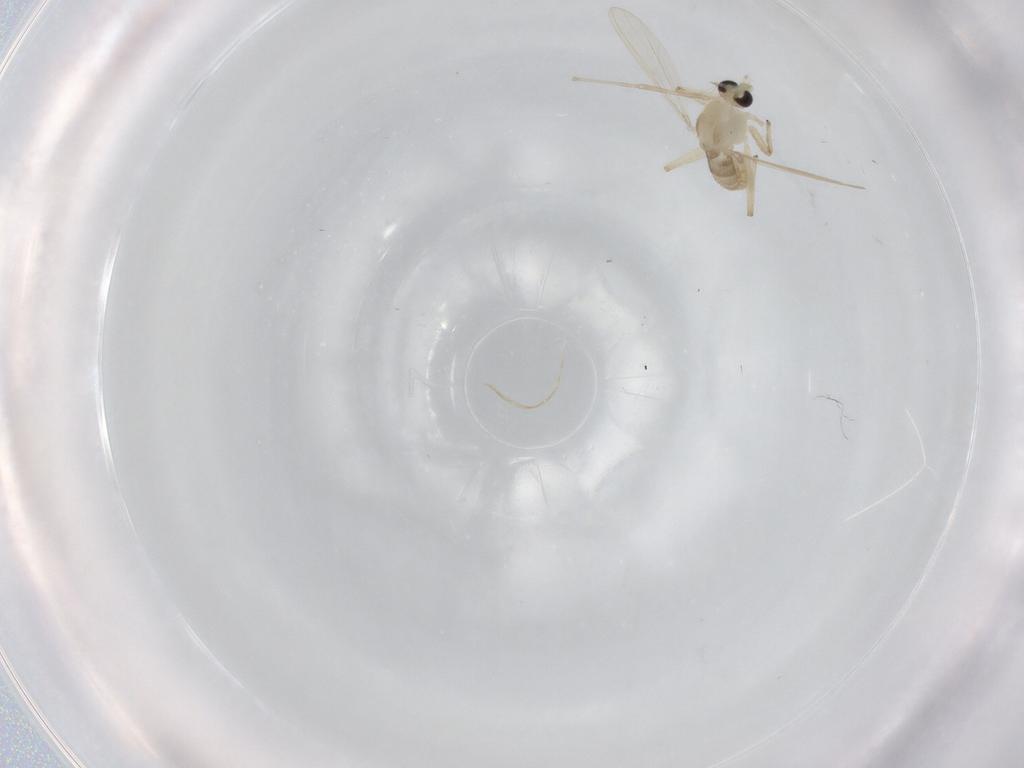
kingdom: Animalia
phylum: Arthropoda
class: Insecta
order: Diptera
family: Chironomidae
